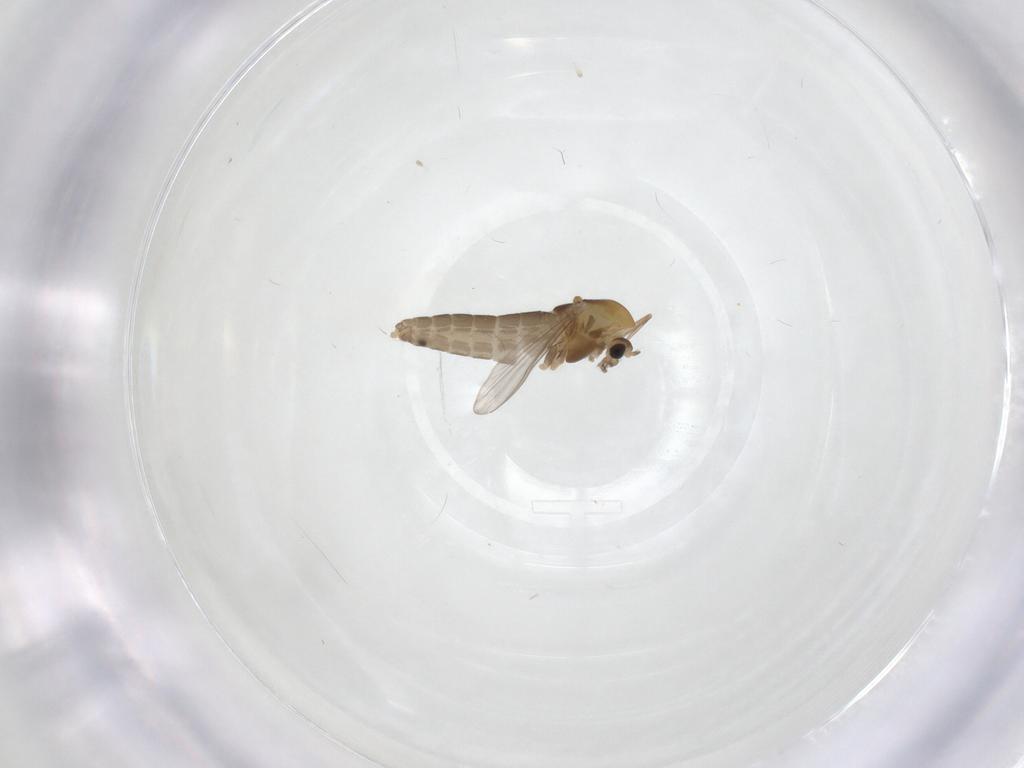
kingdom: Animalia
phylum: Arthropoda
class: Insecta
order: Diptera
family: Chironomidae
